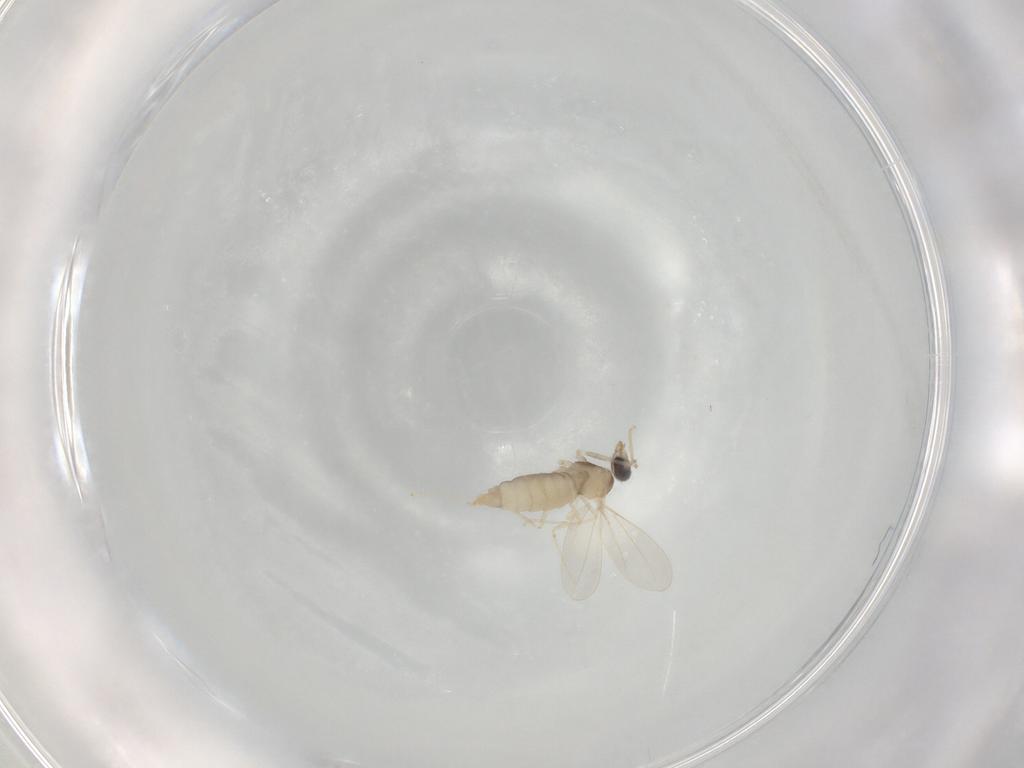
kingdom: Animalia
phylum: Arthropoda
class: Insecta
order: Diptera
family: Cecidomyiidae
